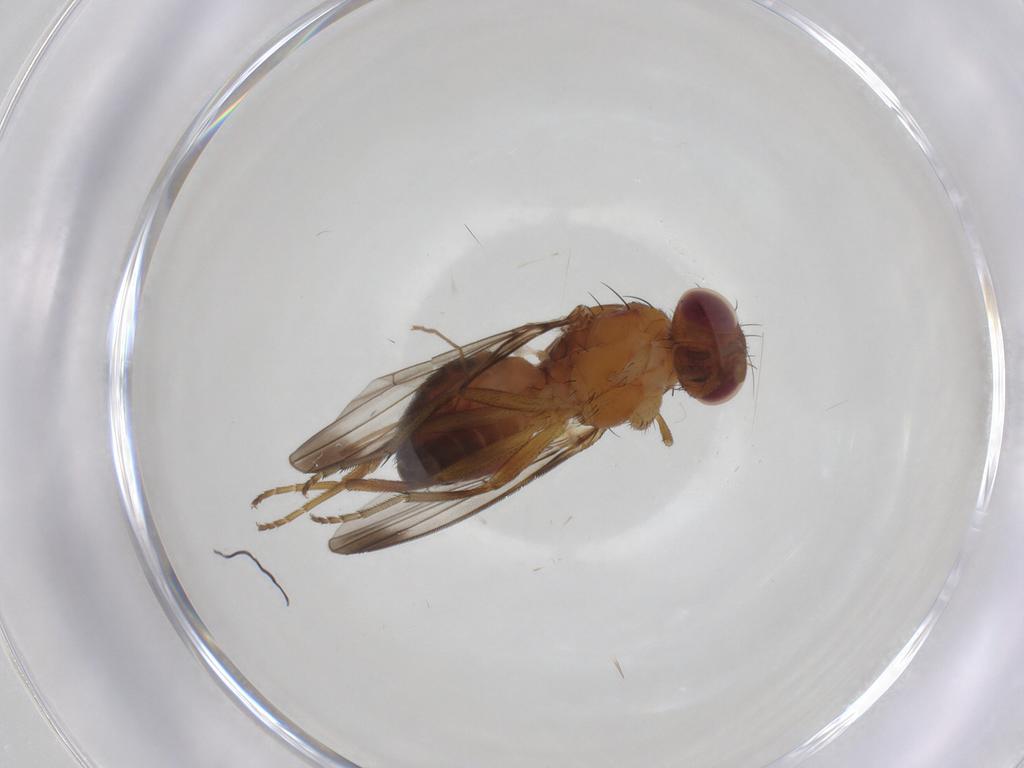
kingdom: Animalia
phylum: Arthropoda
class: Insecta
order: Diptera
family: Piophilidae
